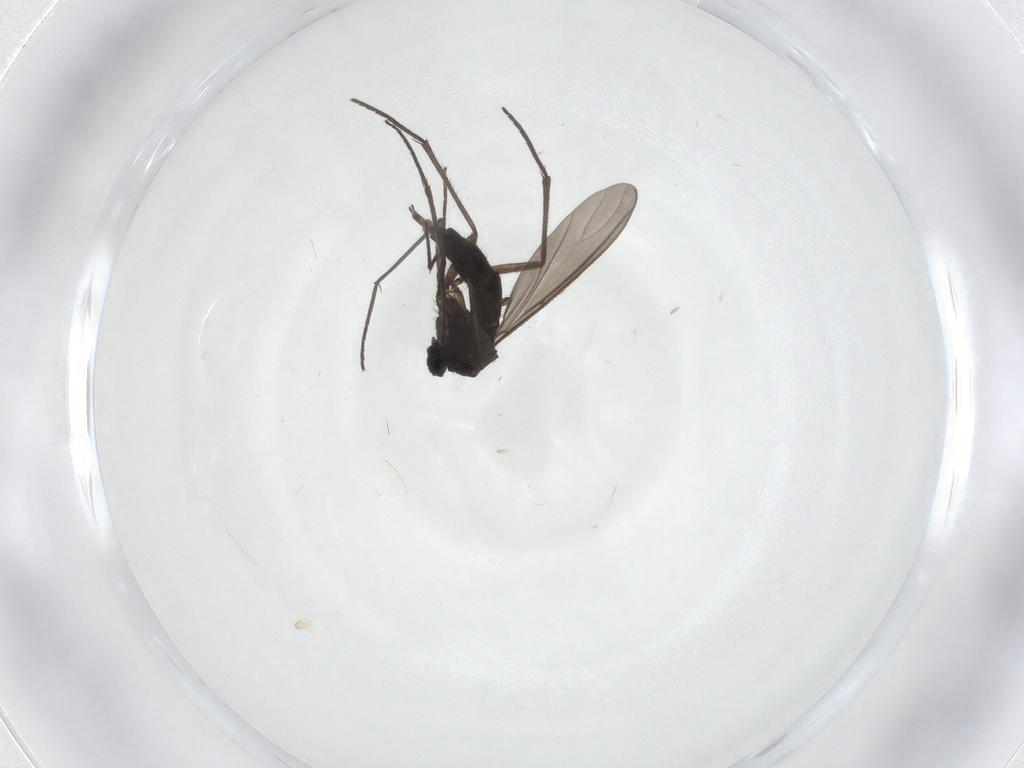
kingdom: Animalia
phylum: Arthropoda
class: Insecta
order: Diptera
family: Sciaridae
